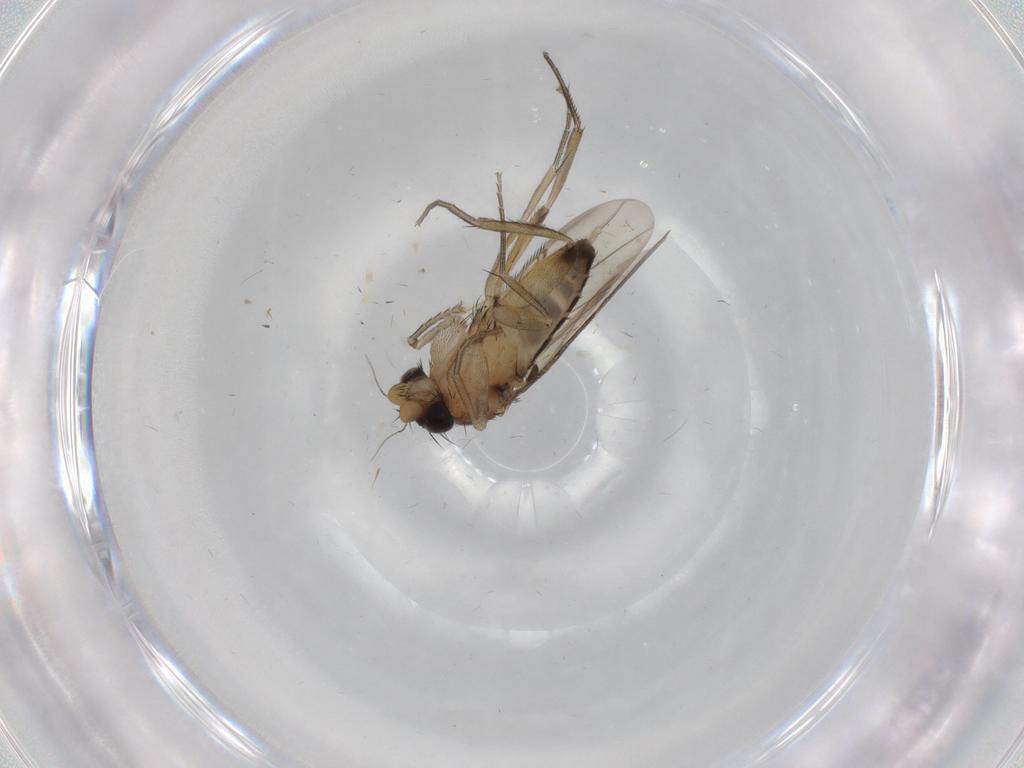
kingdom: Animalia
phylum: Arthropoda
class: Insecta
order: Diptera
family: Phoridae
